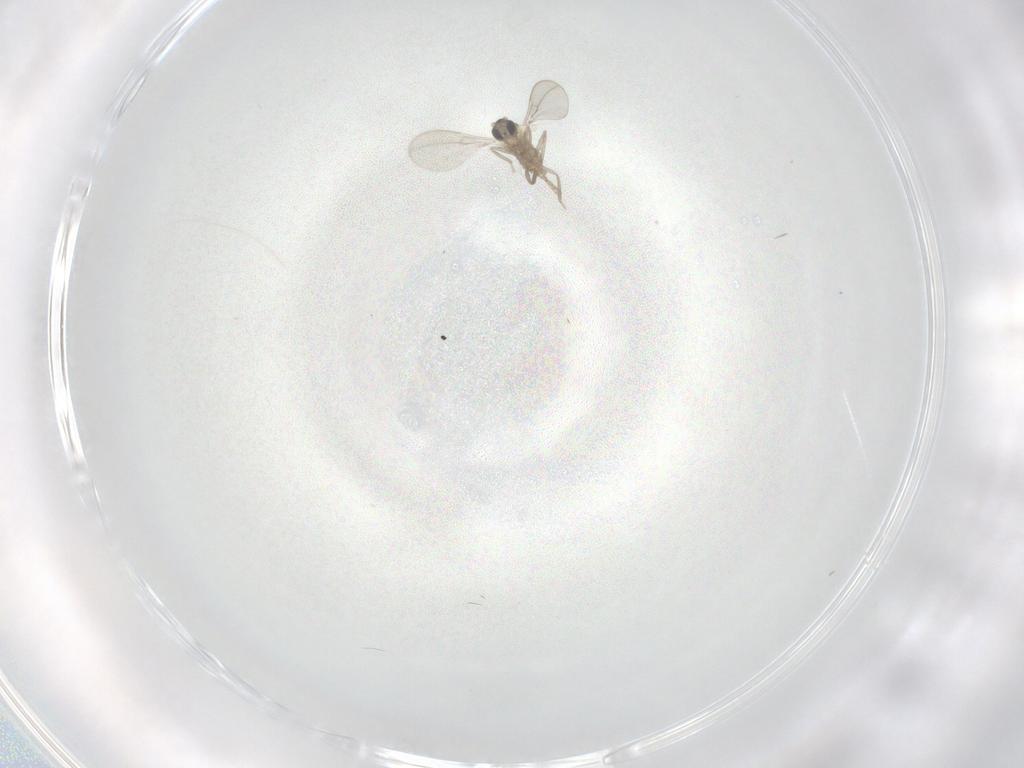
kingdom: Animalia
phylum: Arthropoda
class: Insecta
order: Diptera
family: Cecidomyiidae
